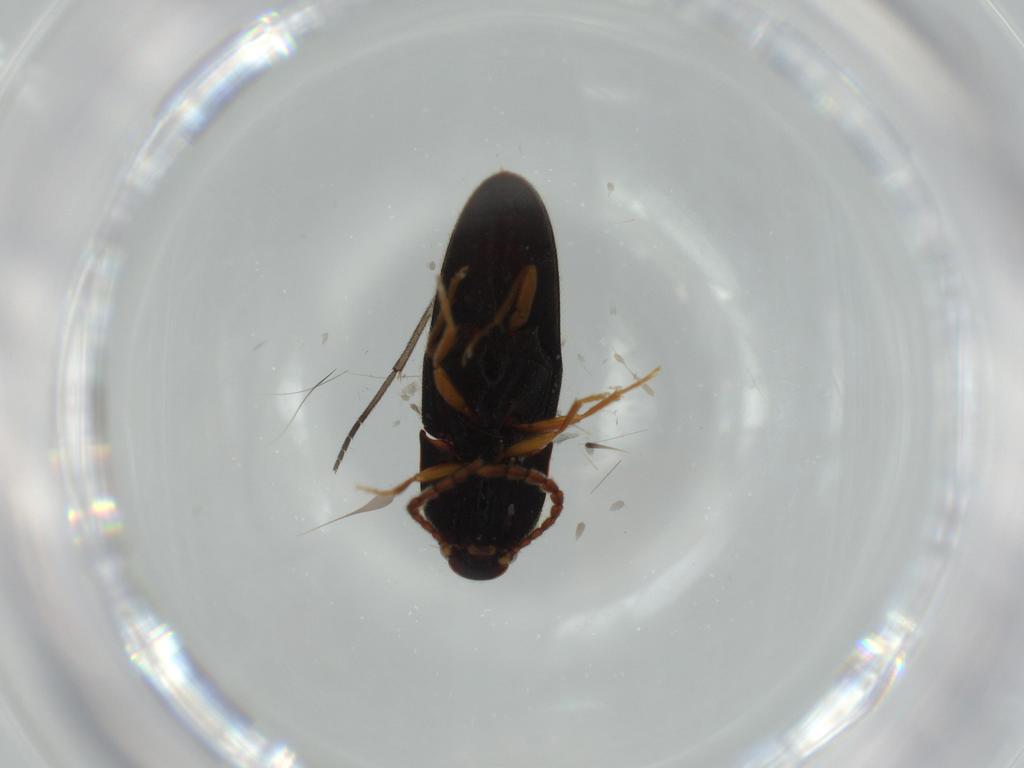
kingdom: Animalia
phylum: Arthropoda
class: Insecta
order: Coleoptera
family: Elateridae
